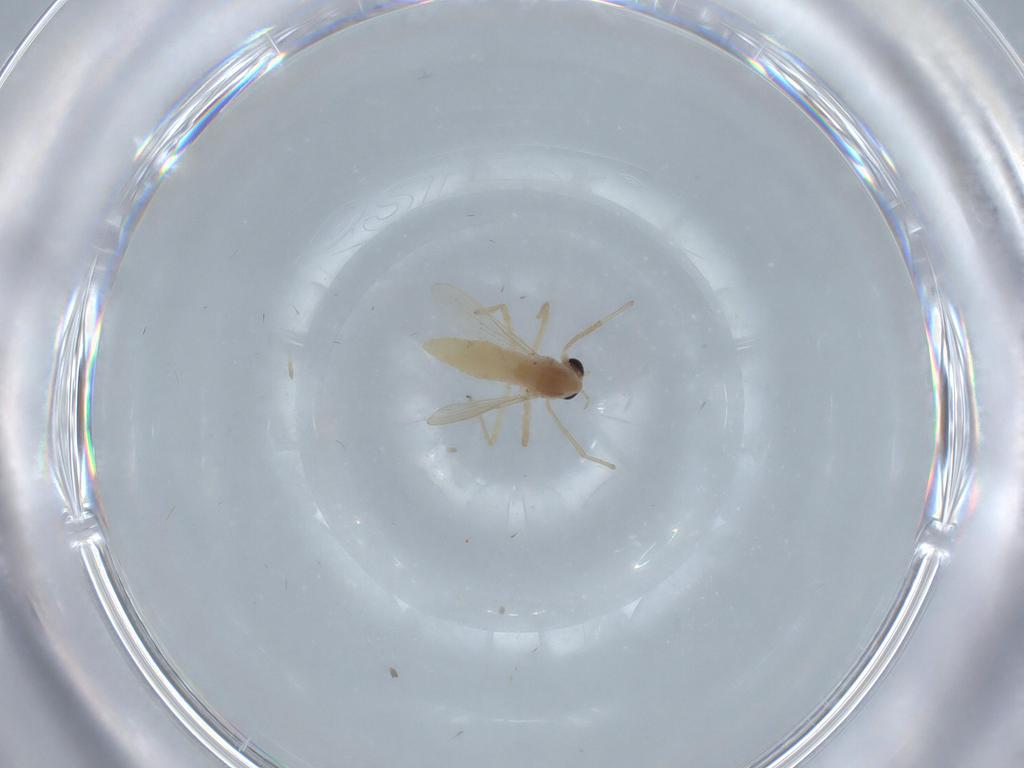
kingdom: Animalia
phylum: Arthropoda
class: Insecta
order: Diptera
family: Chironomidae
